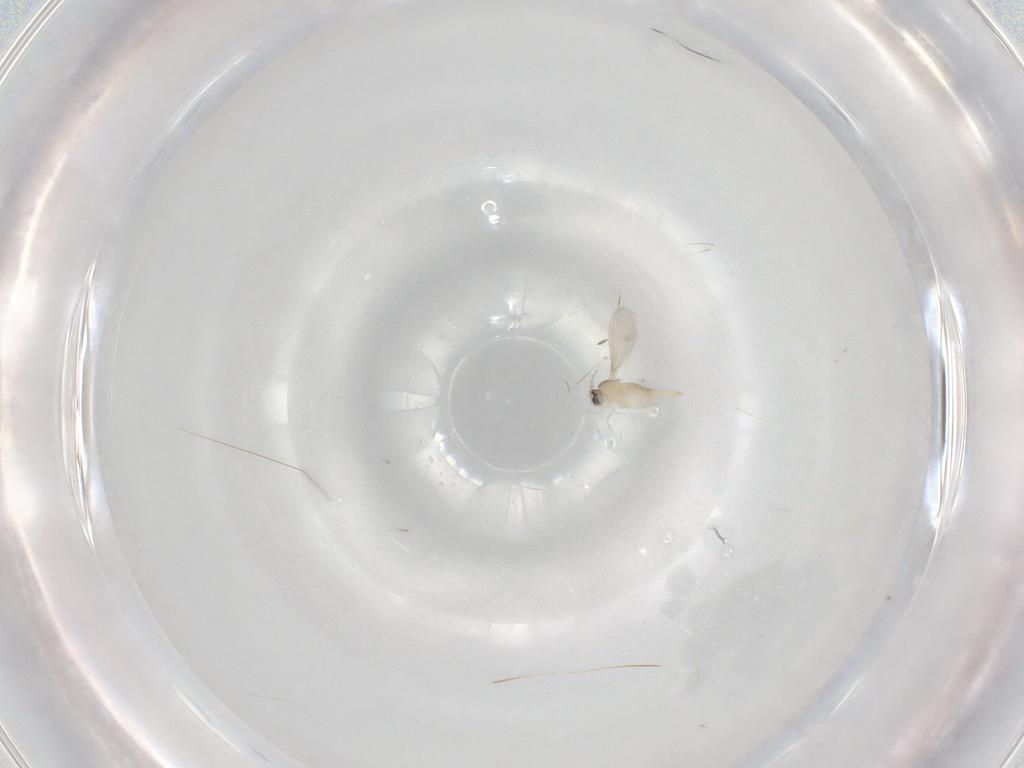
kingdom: Animalia
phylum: Arthropoda
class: Insecta
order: Diptera
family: Cecidomyiidae
